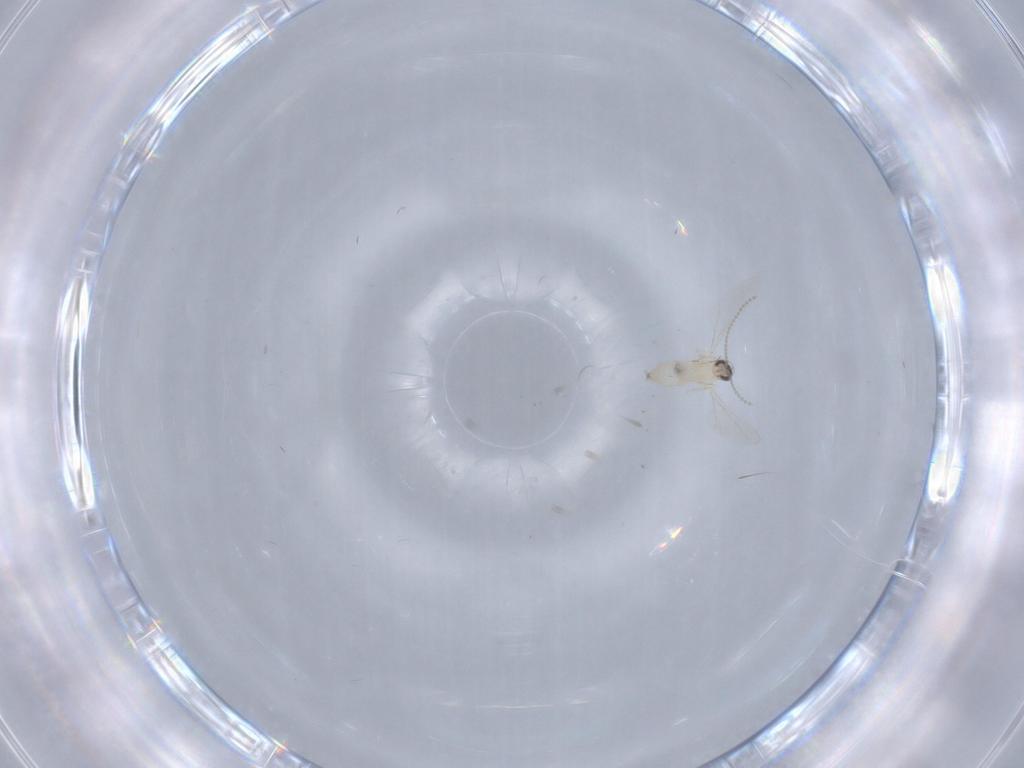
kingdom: Animalia
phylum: Arthropoda
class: Insecta
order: Diptera
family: Cecidomyiidae
